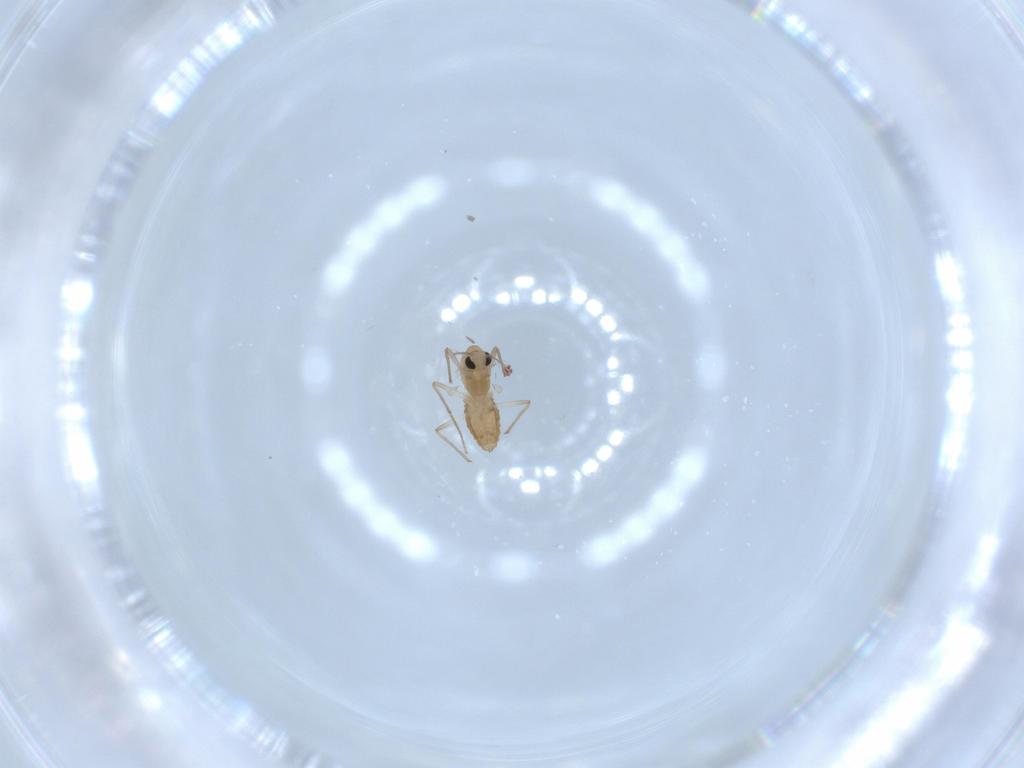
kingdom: Animalia
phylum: Arthropoda
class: Insecta
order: Diptera
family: Chironomidae
